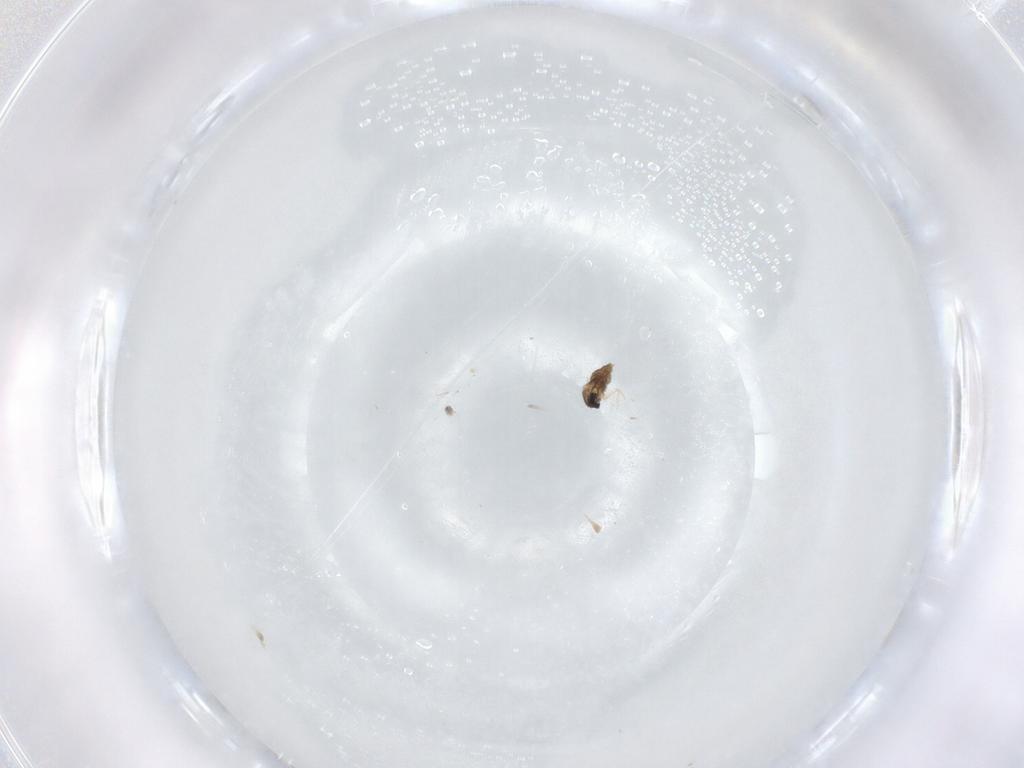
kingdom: Animalia
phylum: Arthropoda
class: Insecta
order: Diptera
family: Cecidomyiidae
